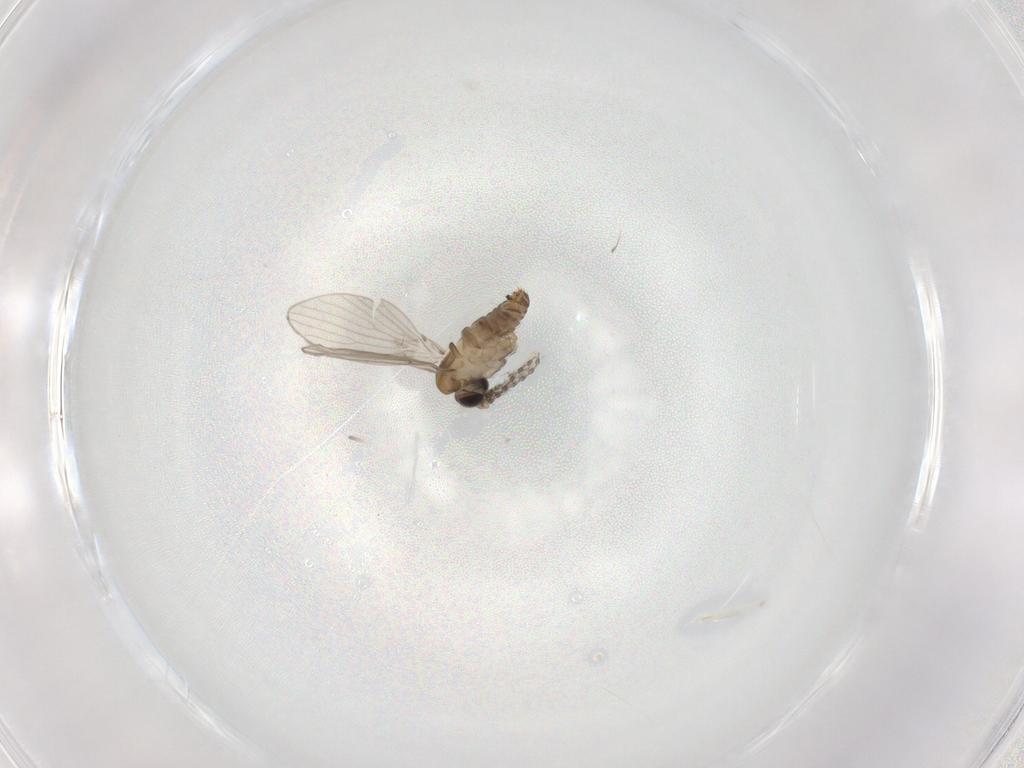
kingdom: Animalia
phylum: Arthropoda
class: Insecta
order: Diptera
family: Psychodidae
